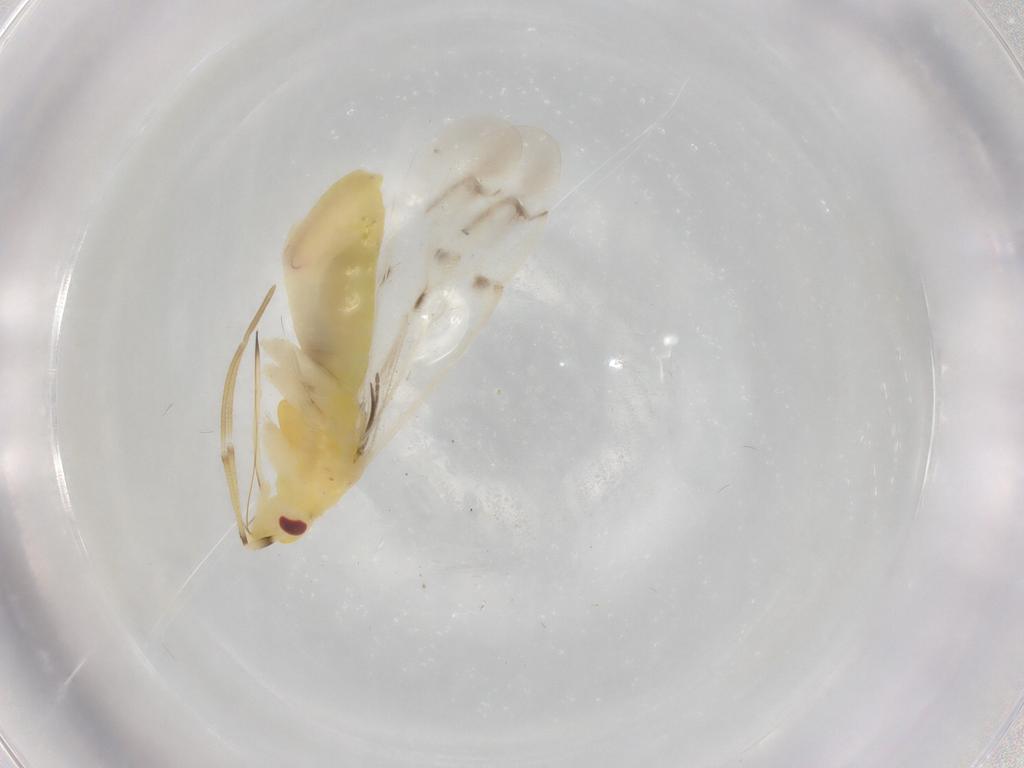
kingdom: Animalia
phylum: Arthropoda
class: Insecta
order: Hemiptera
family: Miridae
